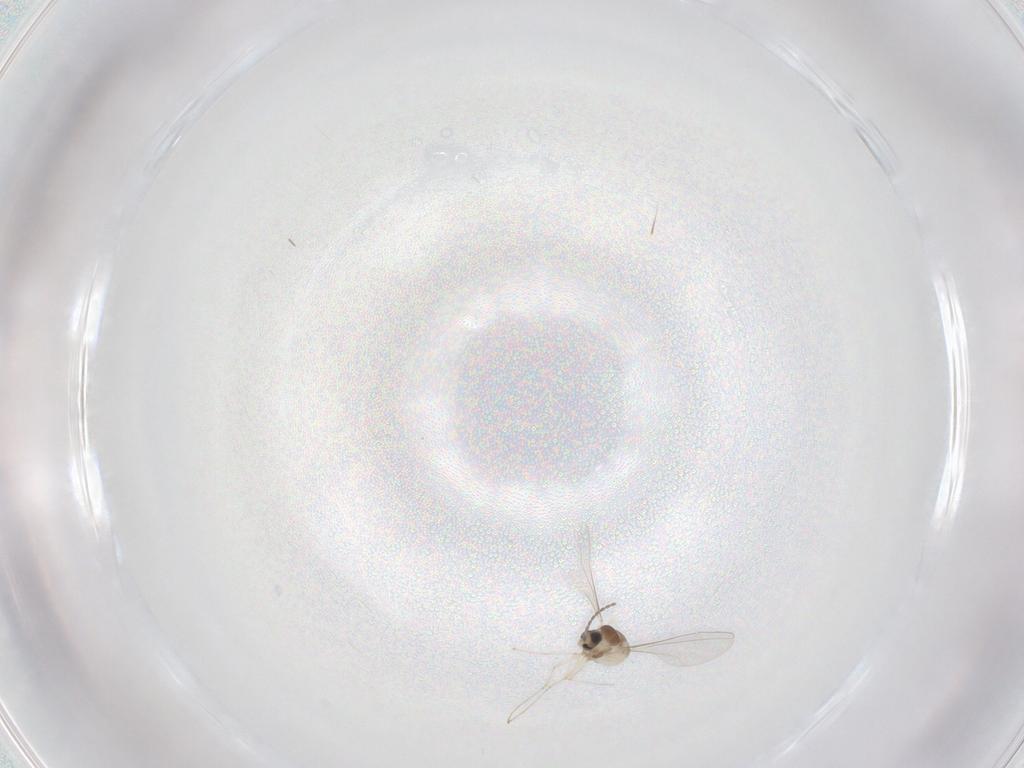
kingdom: Animalia
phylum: Arthropoda
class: Insecta
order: Diptera
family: Cecidomyiidae
